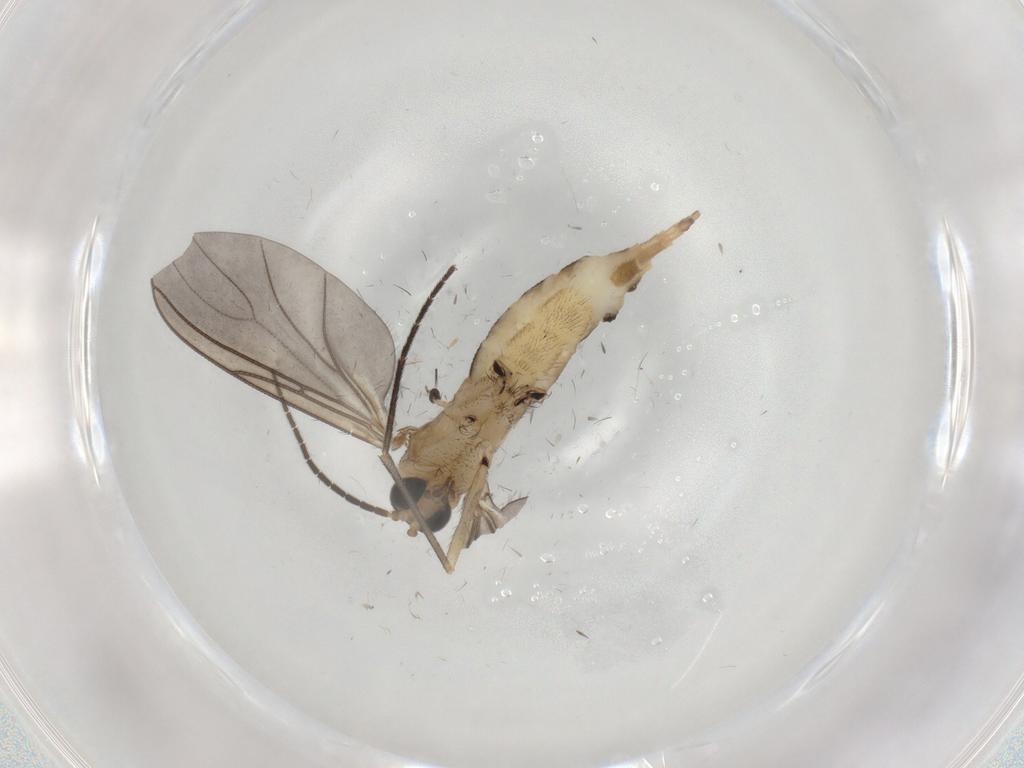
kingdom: Animalia
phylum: Arthropoda
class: Insecta
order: Diptera
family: Sciaridae
